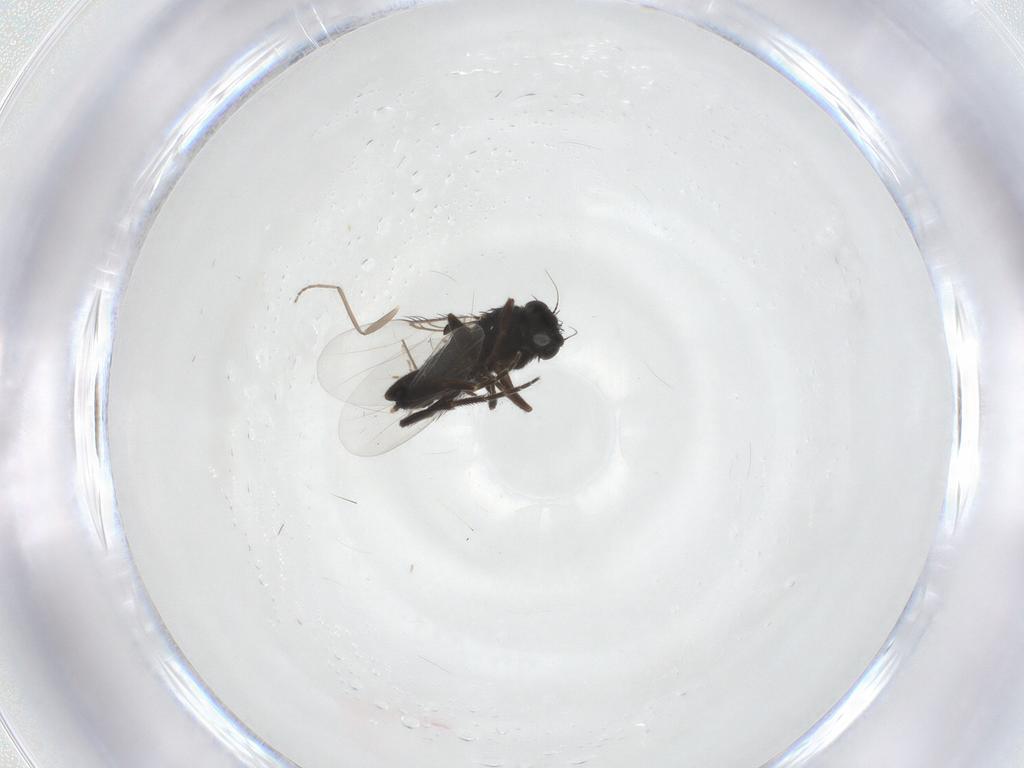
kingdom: Animalia
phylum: Arthropoda
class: Insecta
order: Diptera
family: Phoridae
